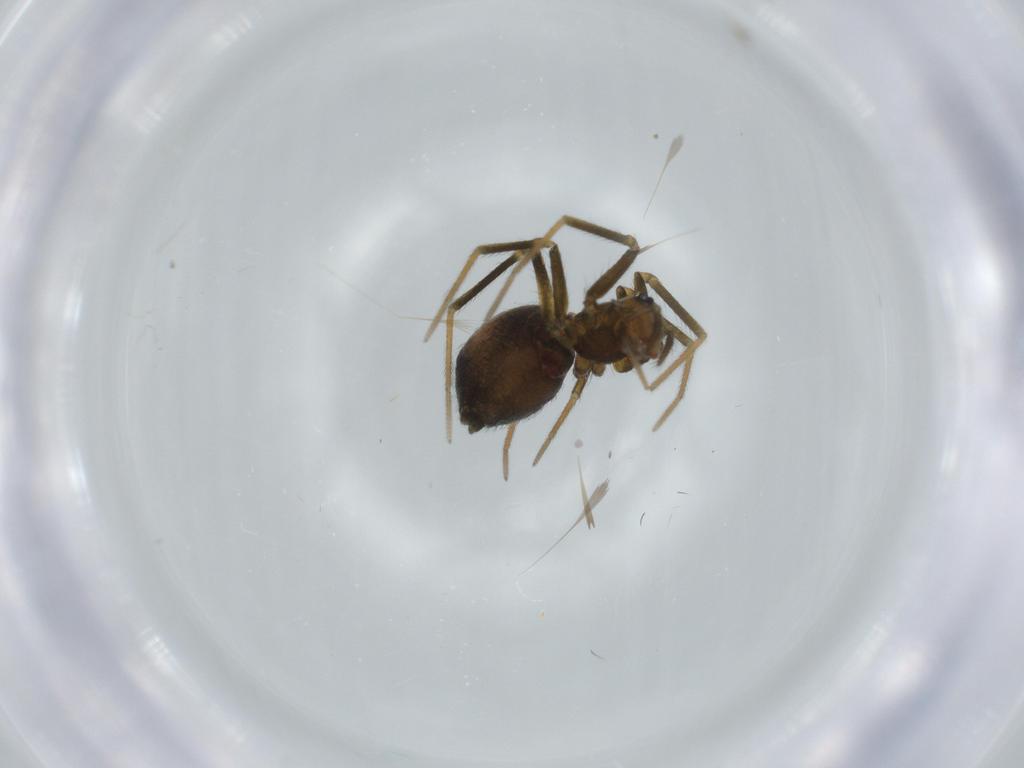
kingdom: Animalia
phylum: Arthropoda
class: Arachnida
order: Araneae
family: Linyphiidae
